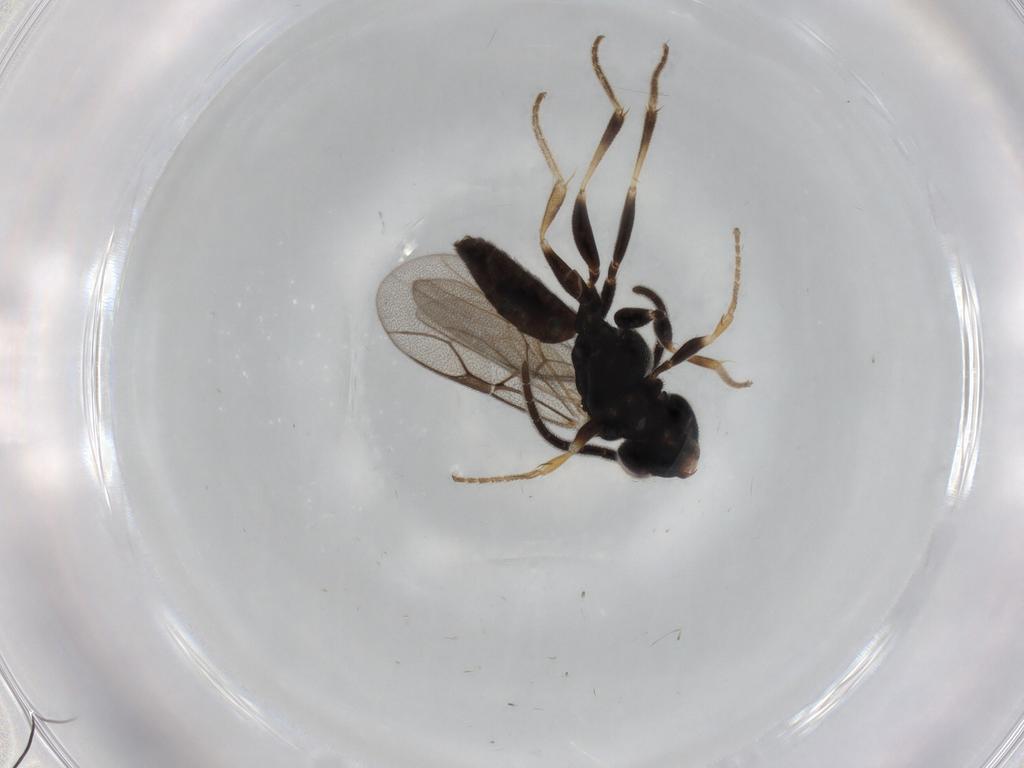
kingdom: Animalia
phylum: Arthropoda
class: Insecta
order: Hymenoptera
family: Dryinidae
